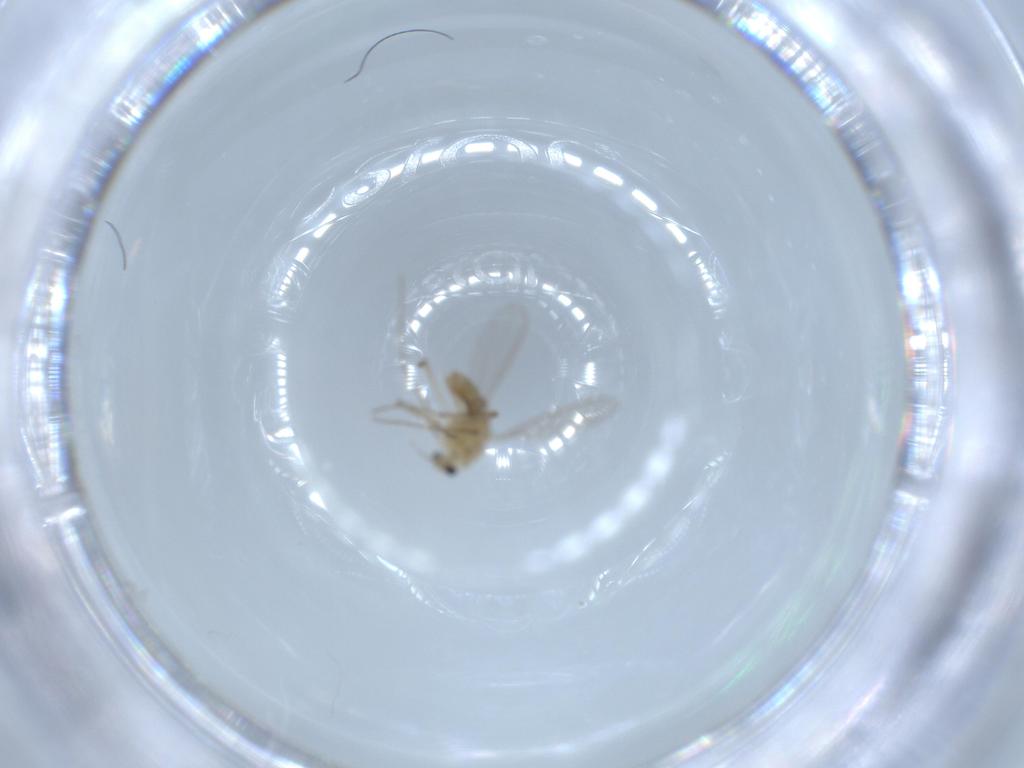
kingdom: Animalia
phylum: Arthropoda
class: Insecta
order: Diptera
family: Chironomidae
